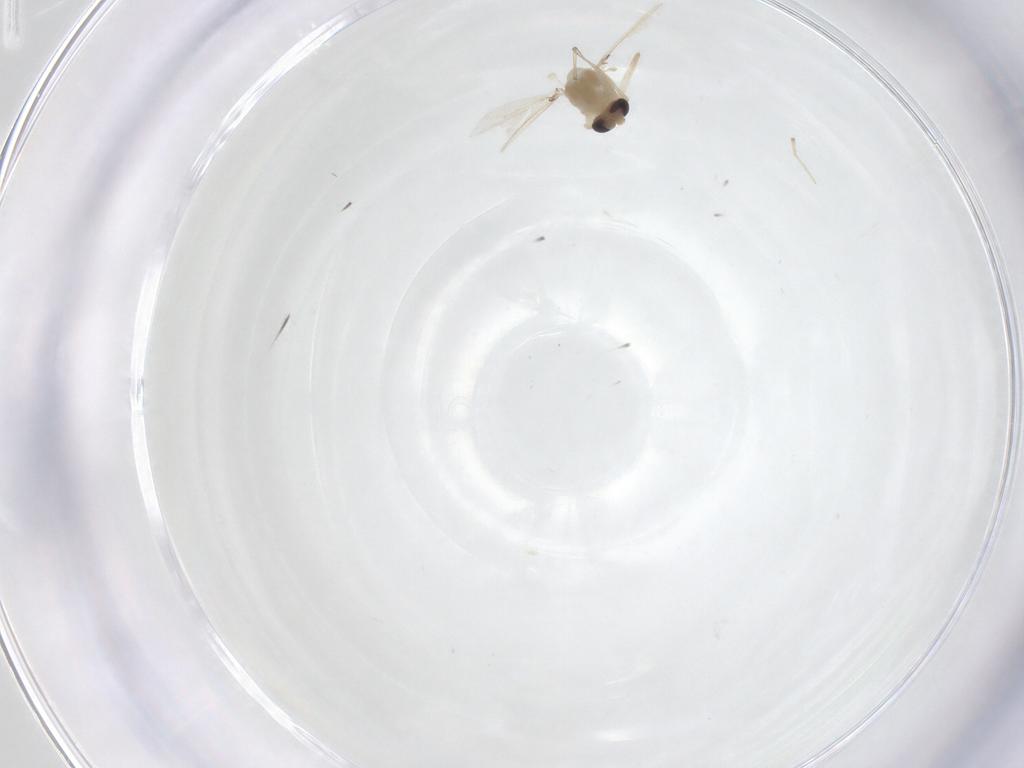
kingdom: Animalia
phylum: Arthropoda
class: Insecta
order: Diptera
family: Chironomidae
